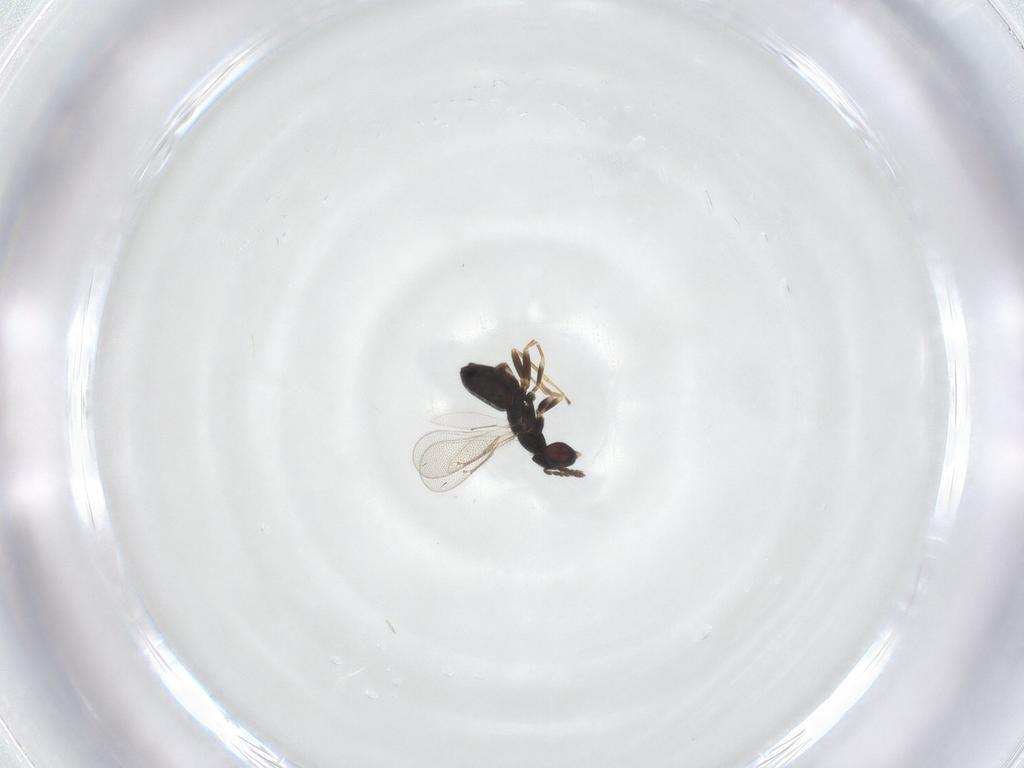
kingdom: Animalia
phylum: Arthropoda
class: Insecta
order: Hymenoptera
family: Eulophidae
